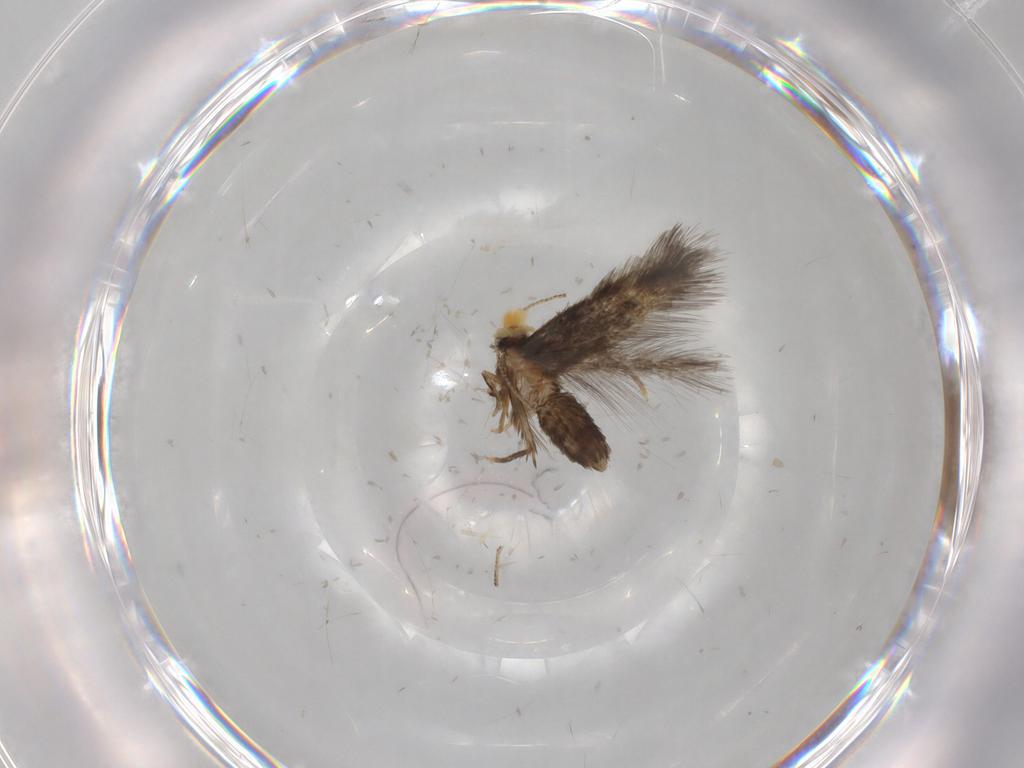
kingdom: Animalia
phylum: Arthropoda
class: Insecta
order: Lepidoptera
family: Nepticulidae
